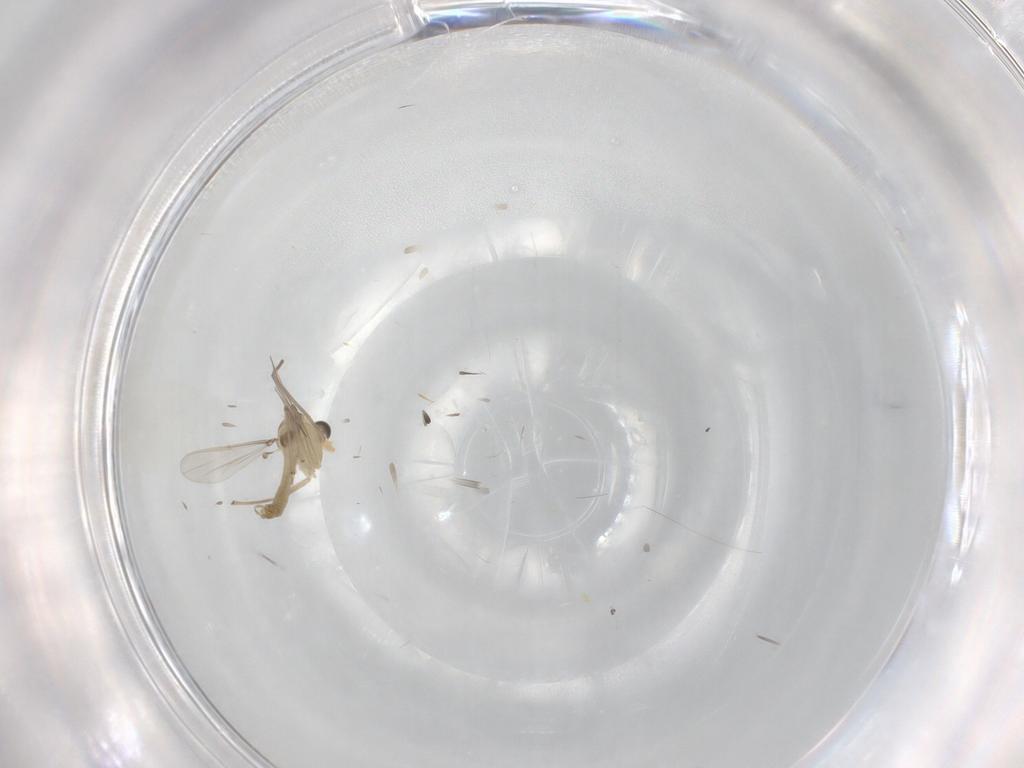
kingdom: Animalia
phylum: Arthropoda
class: Insecta
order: Diptera
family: Chironomidae
